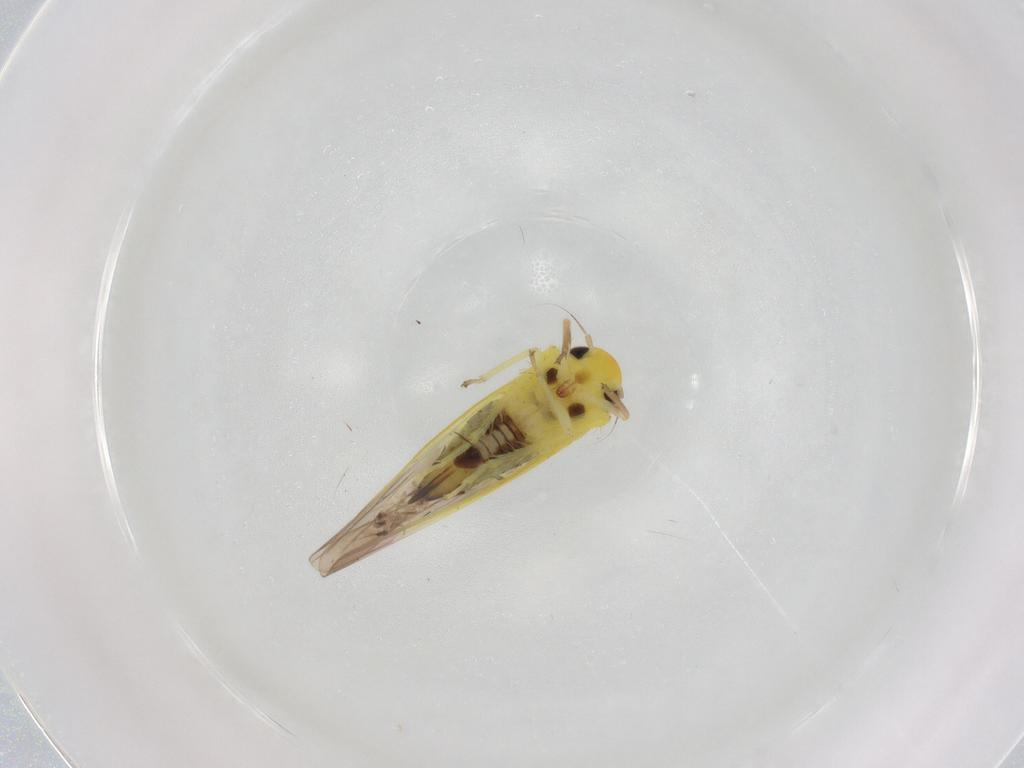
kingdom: Animalia
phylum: Arthropoda
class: Insecta
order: Hemiptera
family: Cicadellidae
